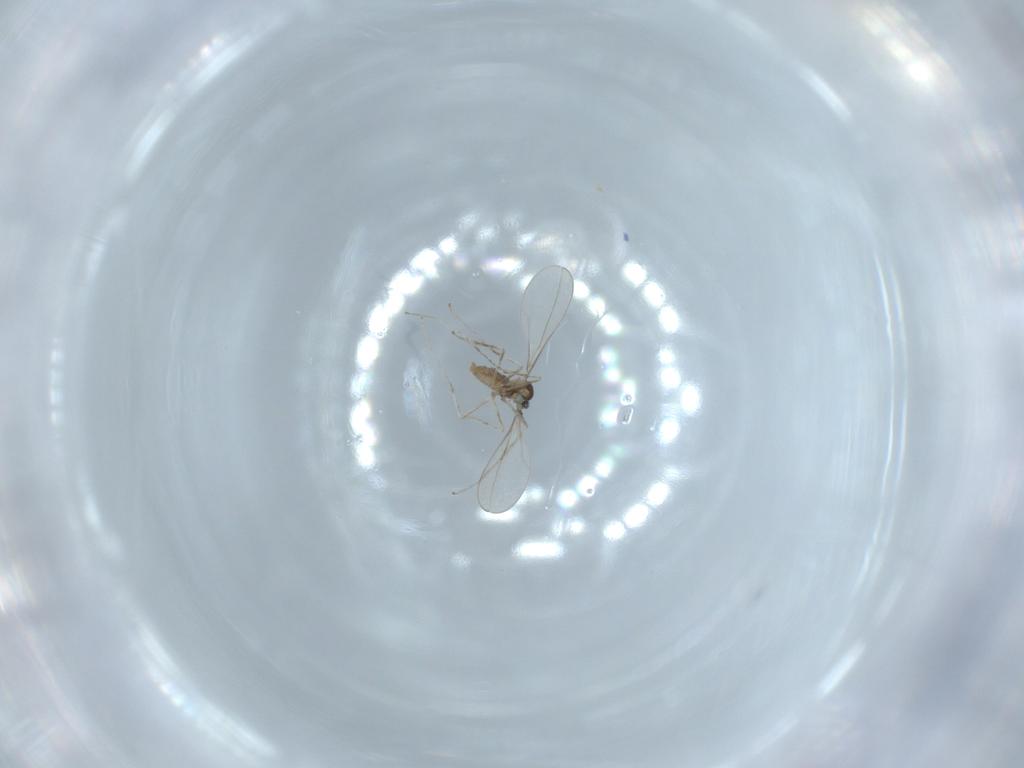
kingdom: Animalia
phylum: Arthropoda
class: Insecta
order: Diptera
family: Cecidomyiidae
